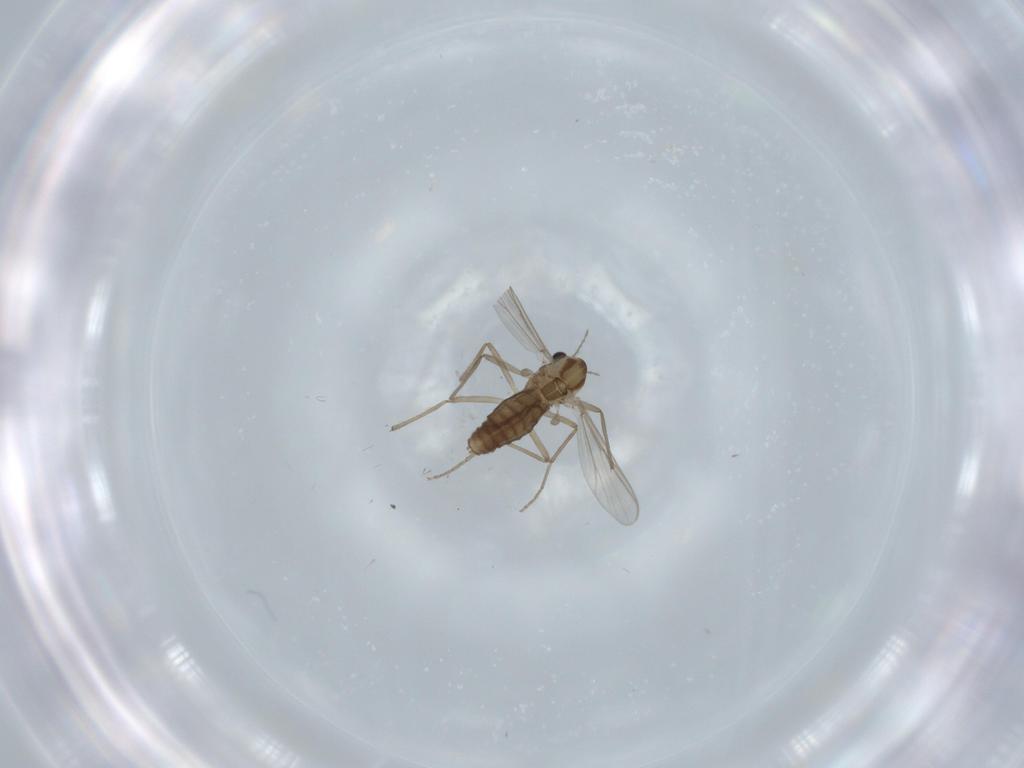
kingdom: Animalia
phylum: Arthropoda
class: Insecta
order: Diptera
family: Chironomidae
